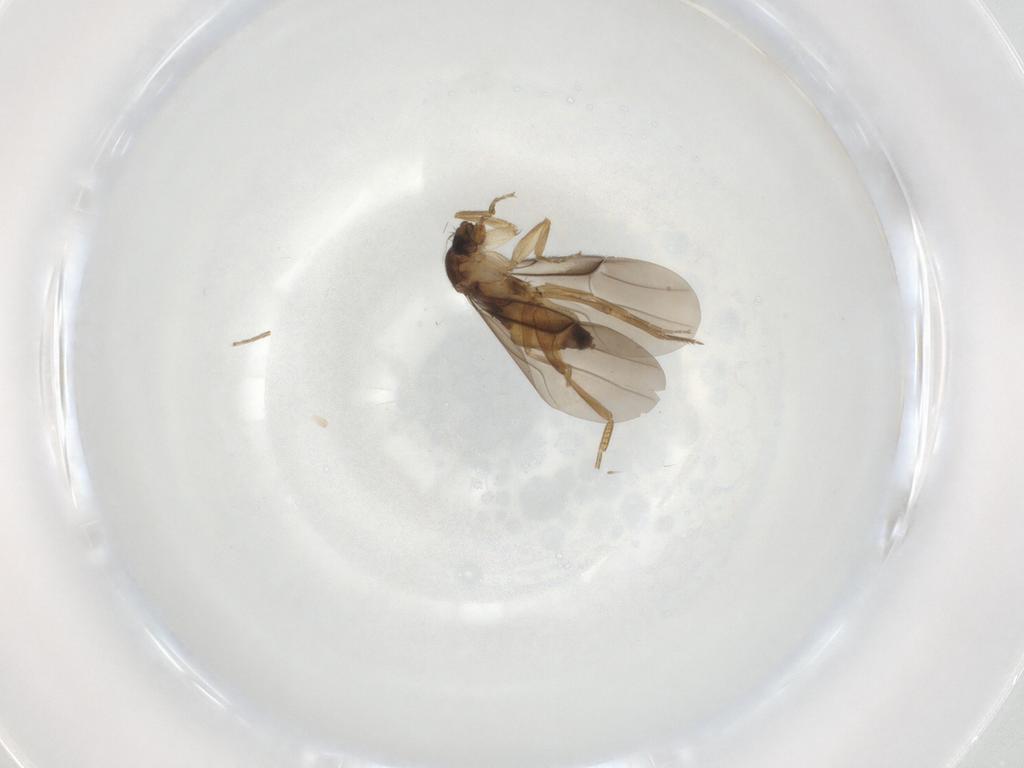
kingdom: Animalia
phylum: Arthropoda
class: Insecta
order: Diptera
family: Phoridae
